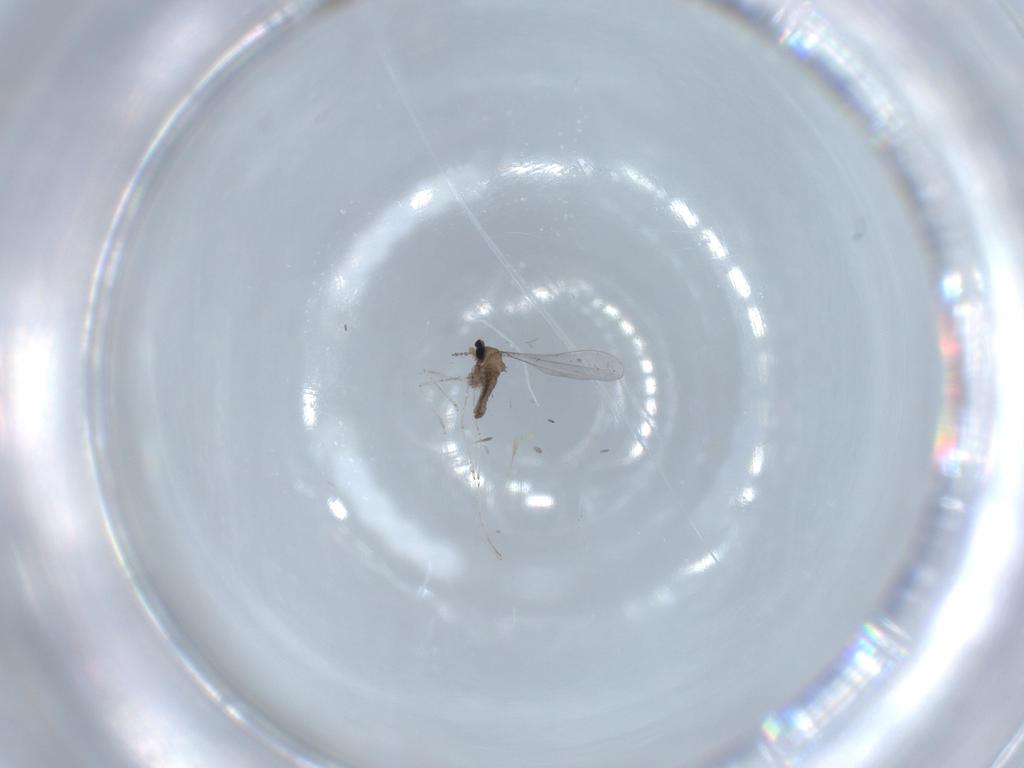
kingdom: Animalia
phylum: Arthropoda
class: Insecta
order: Diptera
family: Cecidomyiidae
